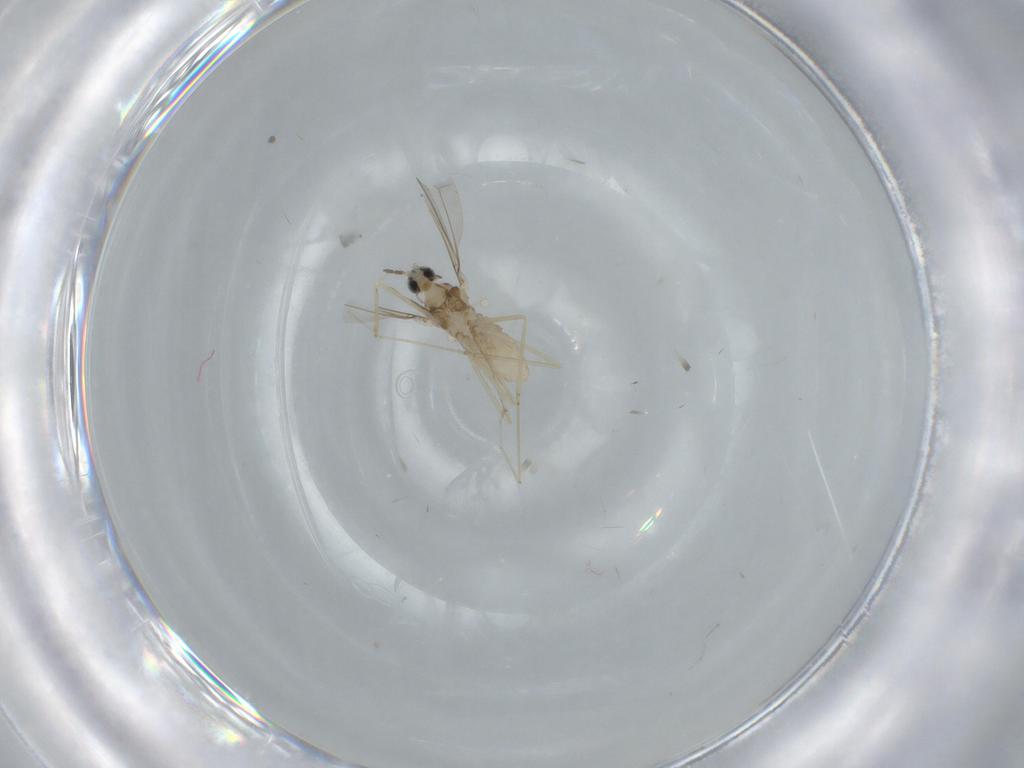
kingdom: Animalia
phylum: Arthropoda
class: Insecta
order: Diptera
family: Cecidomyiidae
